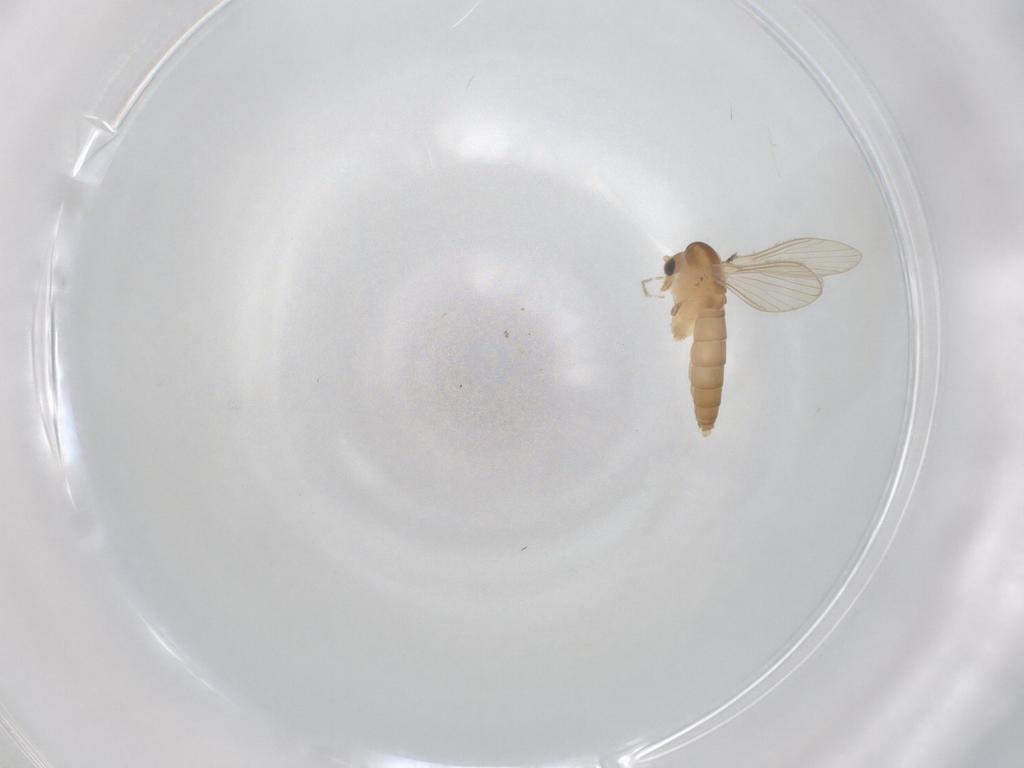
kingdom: Animalia
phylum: Arthropoda
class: Insecta
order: Diptera
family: Psychodidae
